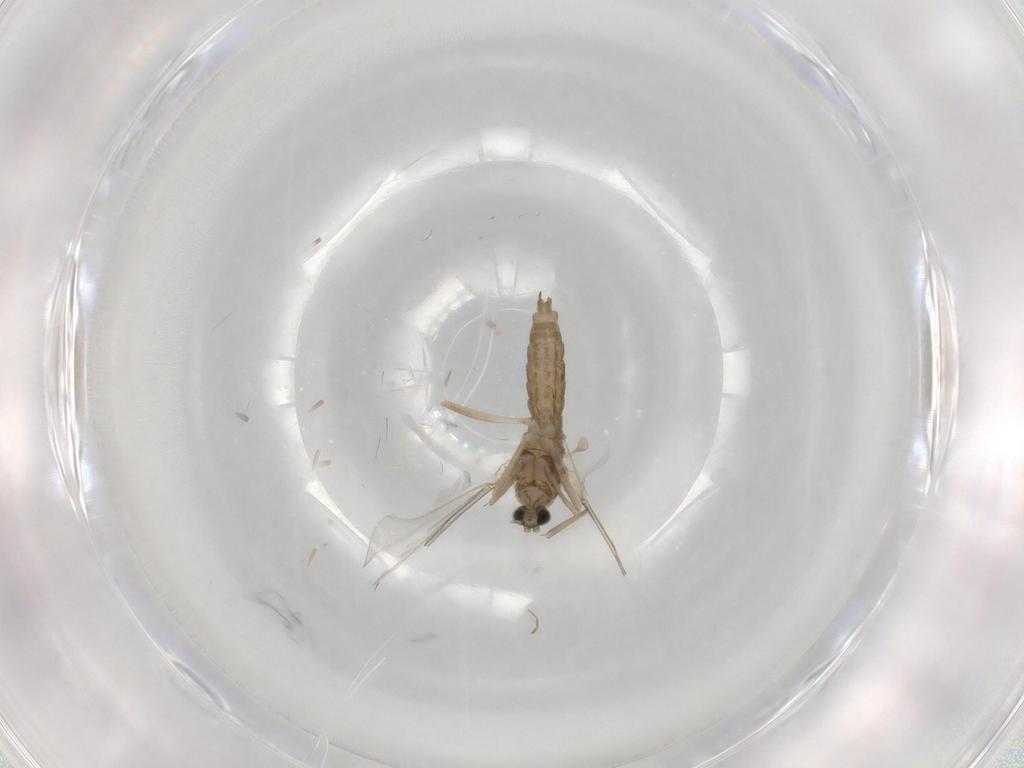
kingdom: Animalia
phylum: Arthropoda
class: Insecta
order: Diptera
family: Cecidomyiidae
